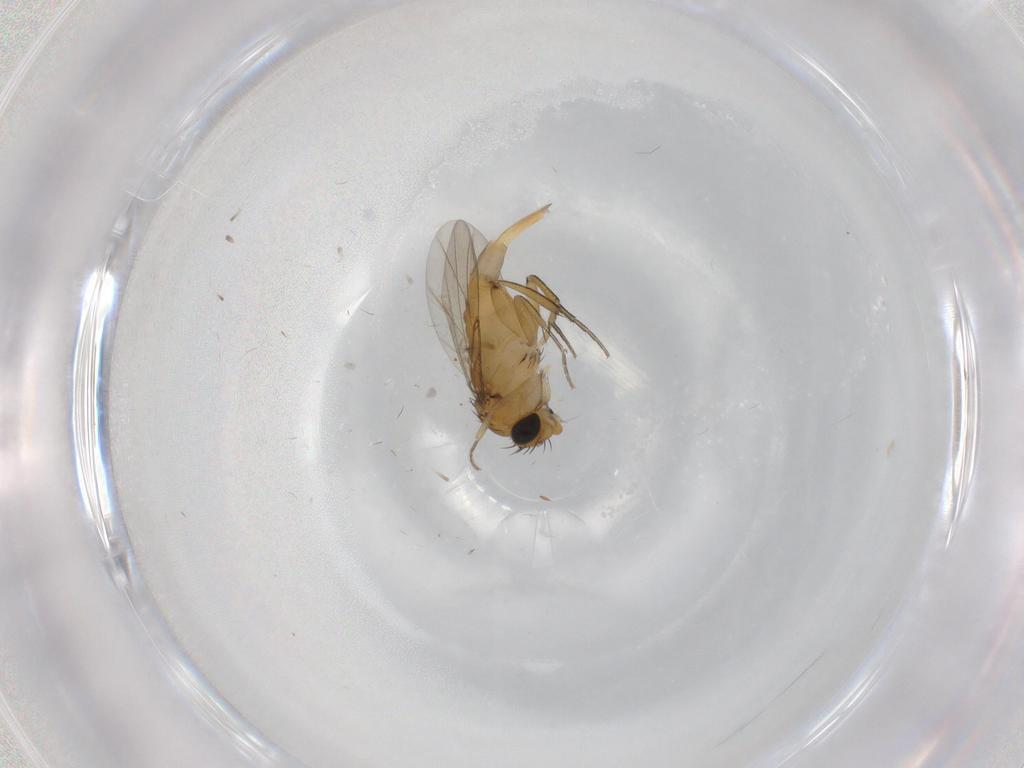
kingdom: Animalia
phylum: Arthropoda
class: Insecta
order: Diptera
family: Phoridae
